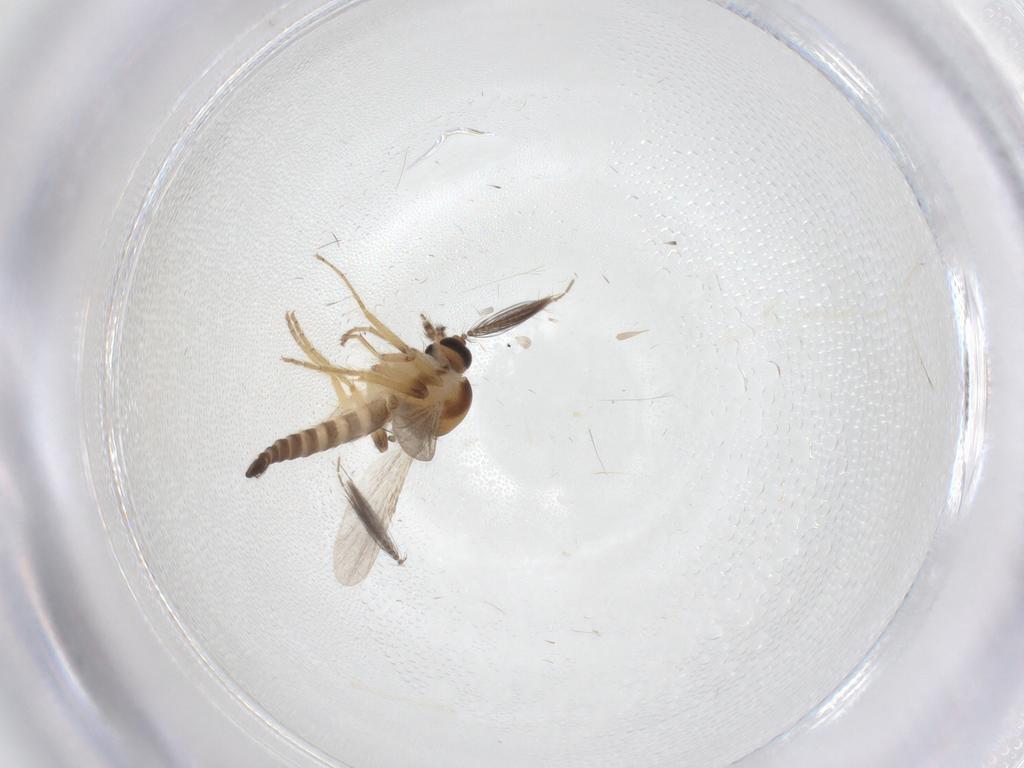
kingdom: Animalia
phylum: Arthropoda
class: Insecta
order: Diptera
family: Ceratopogonidae
